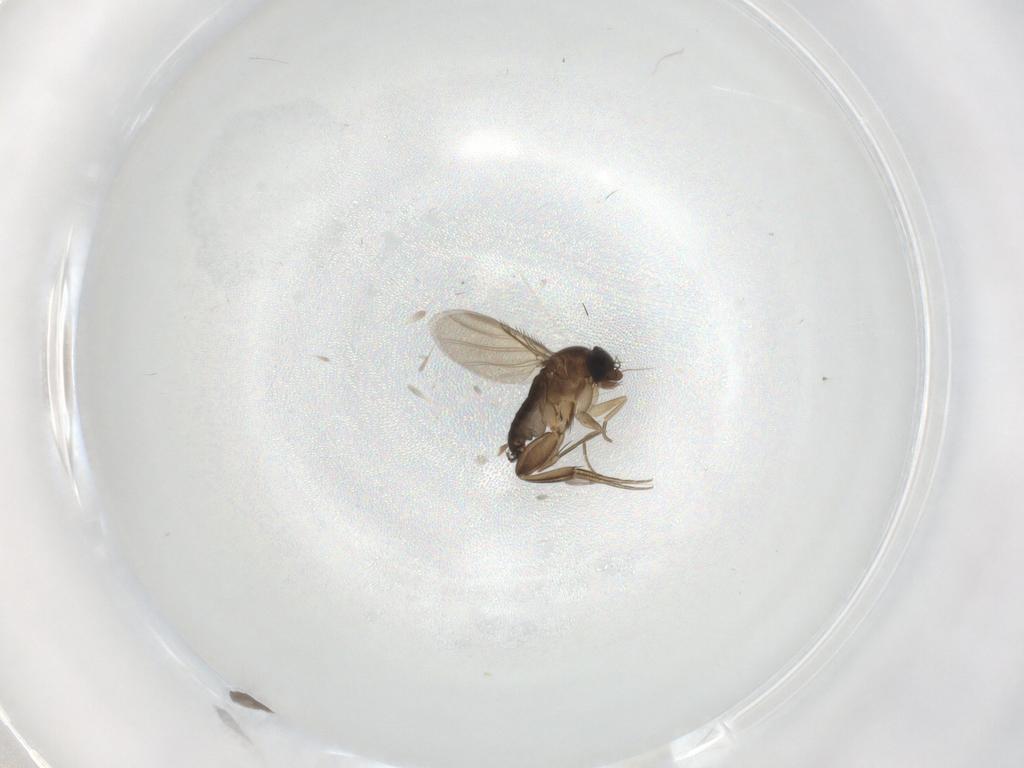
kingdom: Animalia
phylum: Arthropoda
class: Insecta
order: Diptera
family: Phoridae
